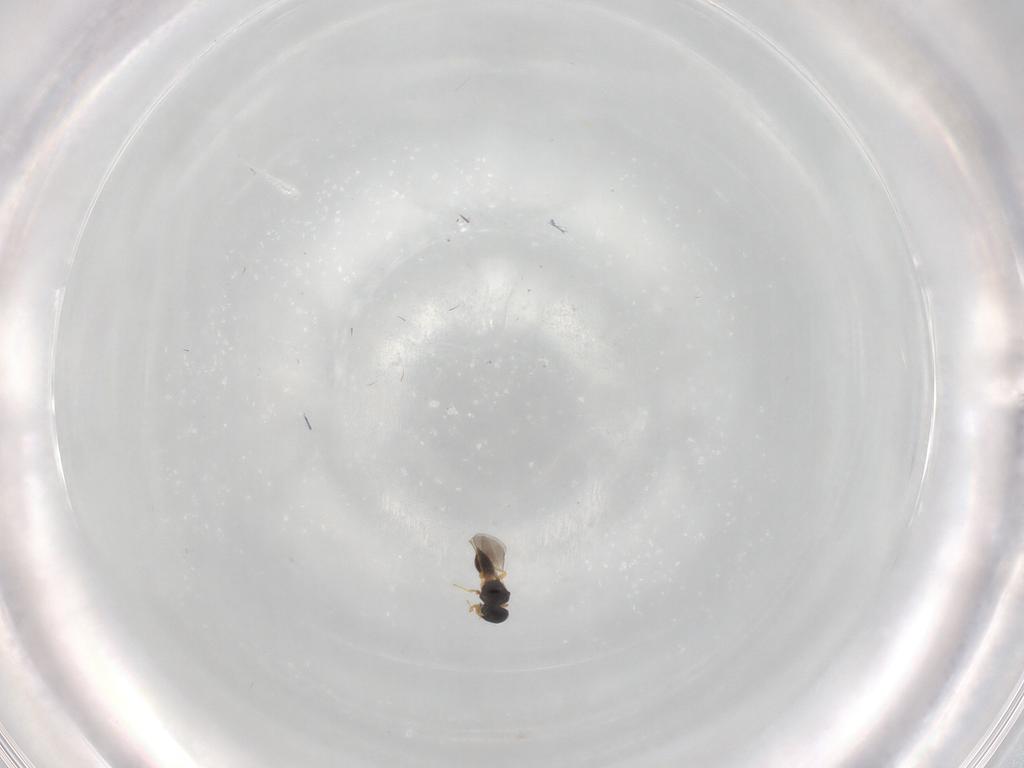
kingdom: Animalia
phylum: Arthropoda
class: Insecta
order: Hymenoptera
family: Platygastridae
